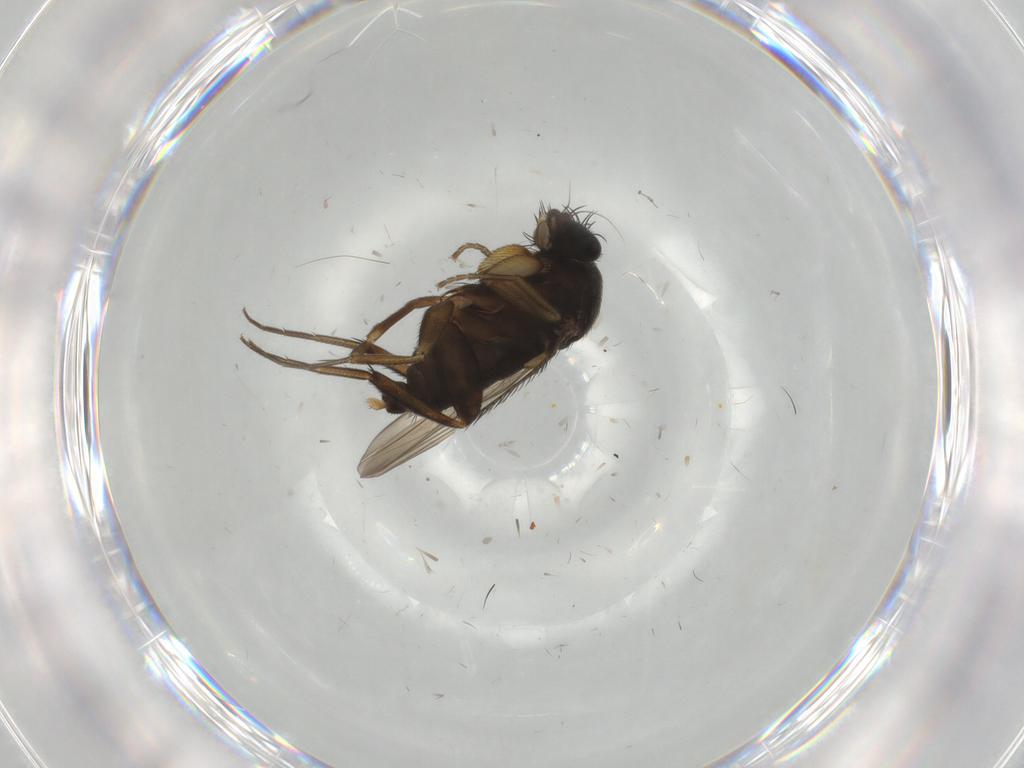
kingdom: Animalia
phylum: Arthropoda
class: Insecta
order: Diptera
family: Phoridae
